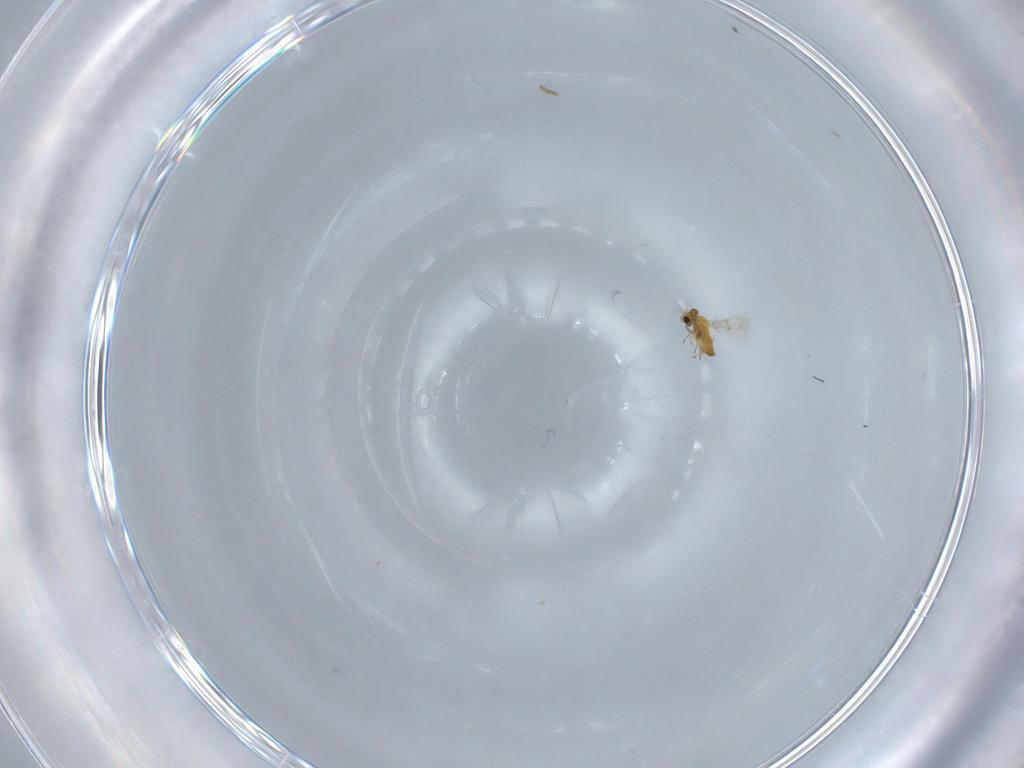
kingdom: Animalia
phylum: Arthropoda
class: Insecta
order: Hymenoptera
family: Trichogrammatidae
